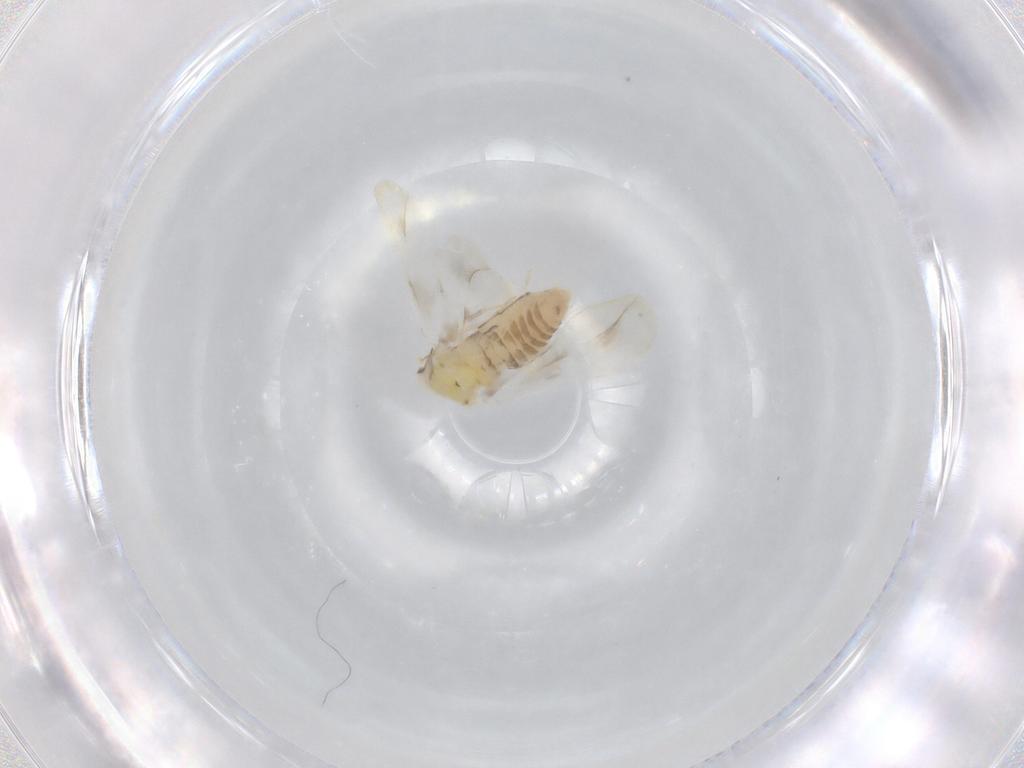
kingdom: Animalia
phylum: Arthropoda
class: Insecta
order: Hemiptera
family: Aleyrodidae
